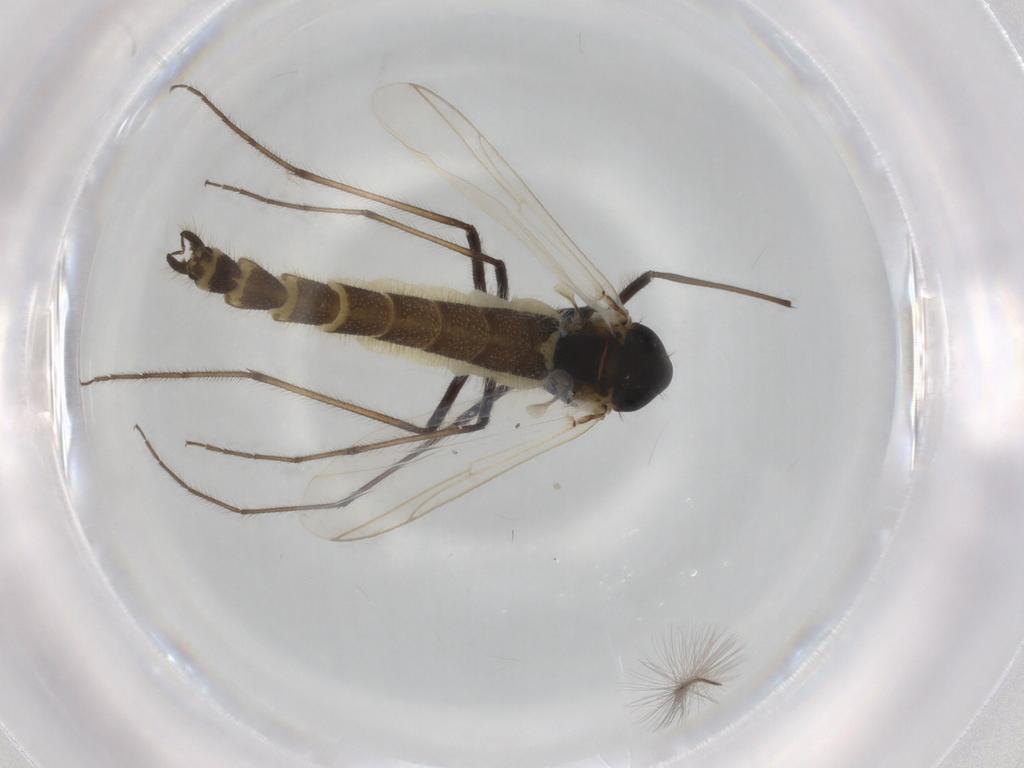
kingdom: Animalia
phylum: Arthropoda
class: Insecta
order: Diptera
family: Chironomidae
